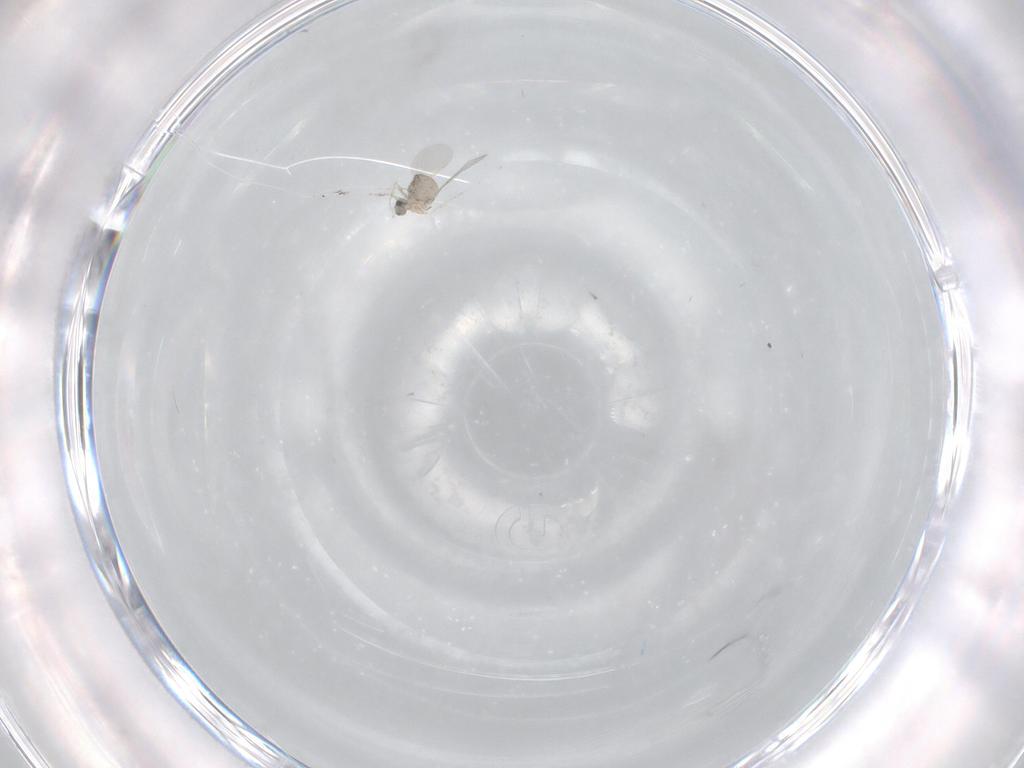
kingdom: Animalia
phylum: Arthropoda
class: Insecta
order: Diptera
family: Cecidomyiidae
